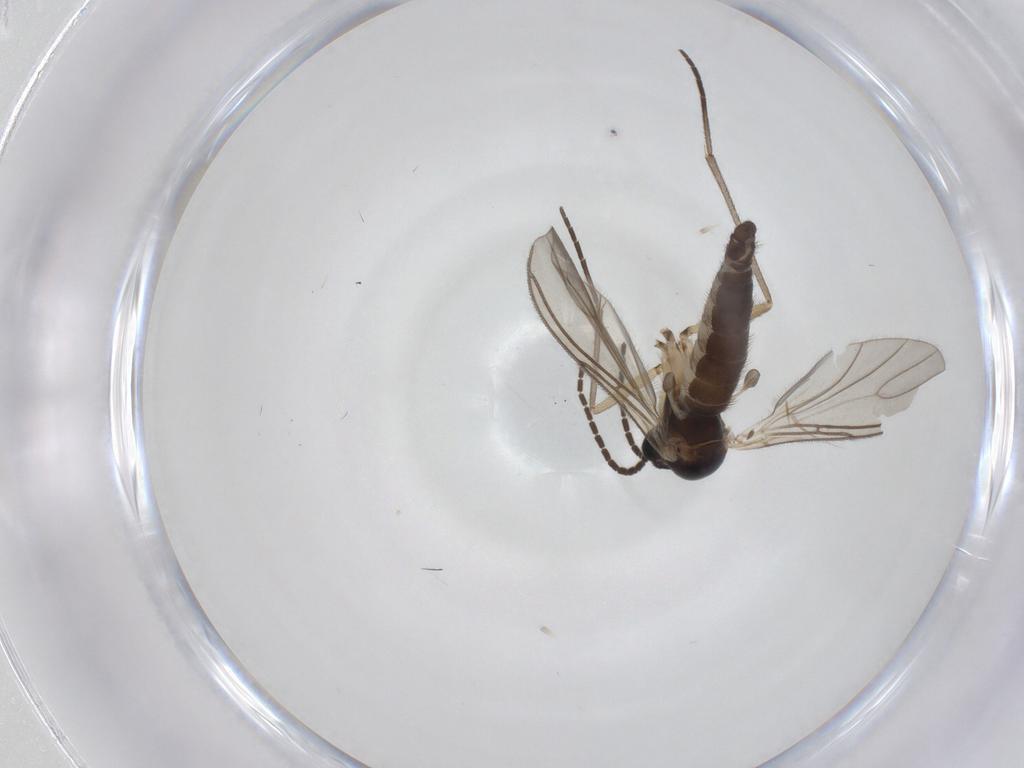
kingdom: Animalia
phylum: Arthropoda
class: Insecta
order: Diptera
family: Sciaridae
